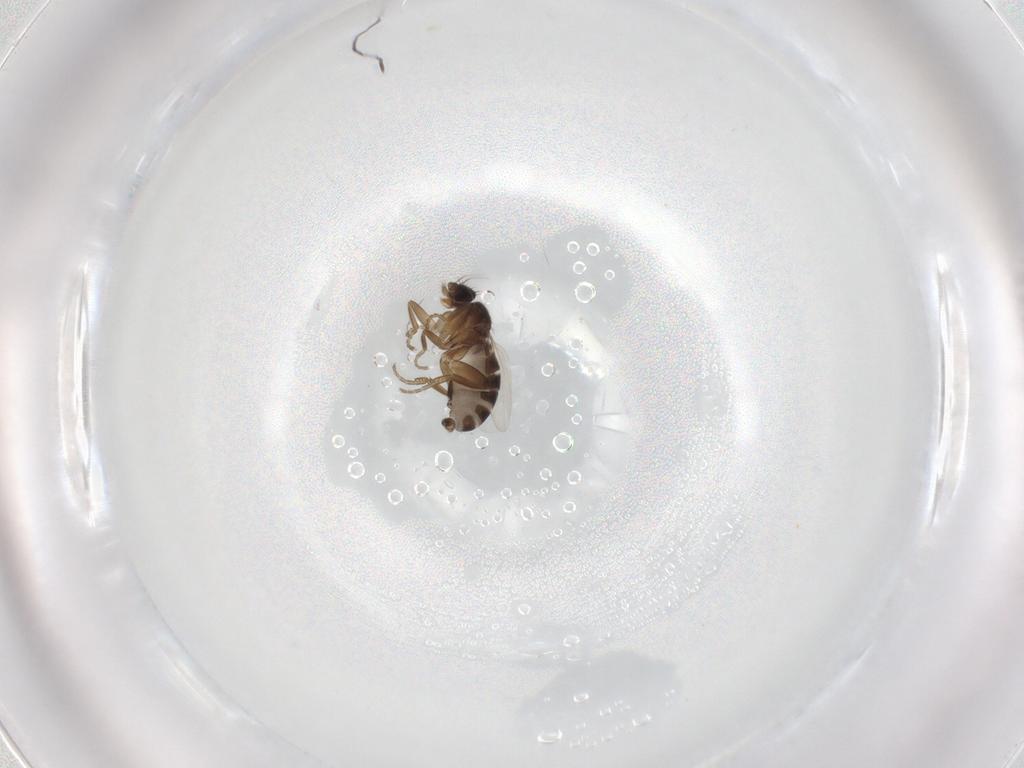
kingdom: Animalia
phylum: Arthropoda
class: Insecta
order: Diptera
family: Phoridae
